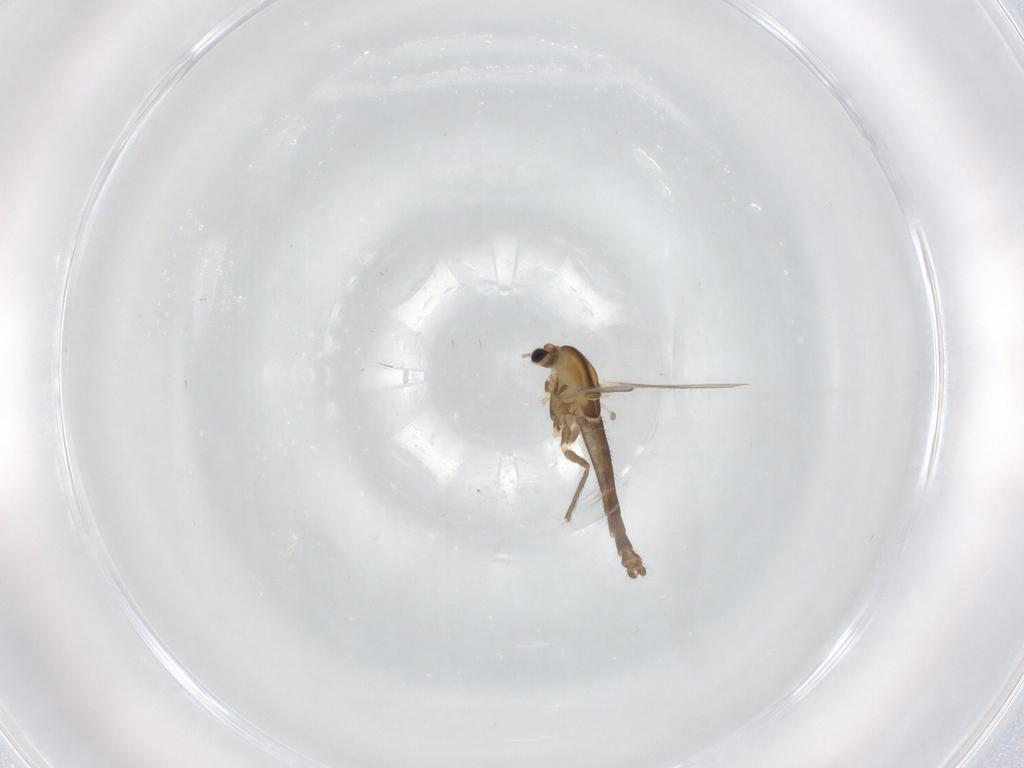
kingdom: Animalia
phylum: Arthropoda
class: Insecta
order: Diptera
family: Chironomidae
